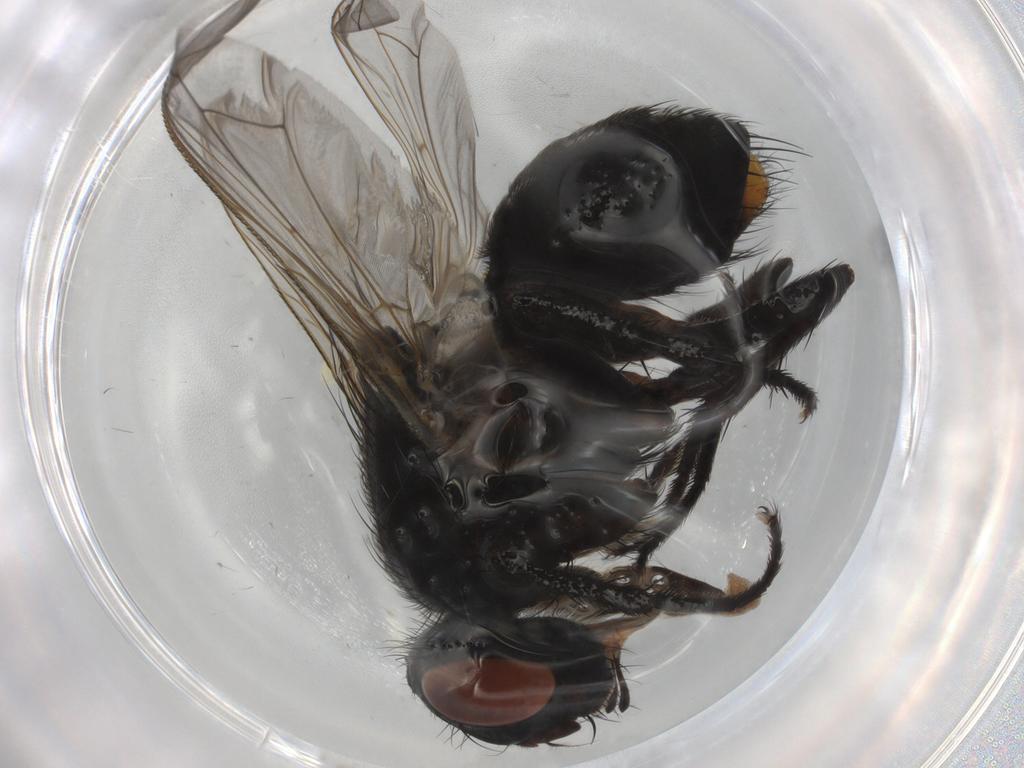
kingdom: Animalia
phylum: Arthropoda
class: Insecta
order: Diptera
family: Sarcophagidae
